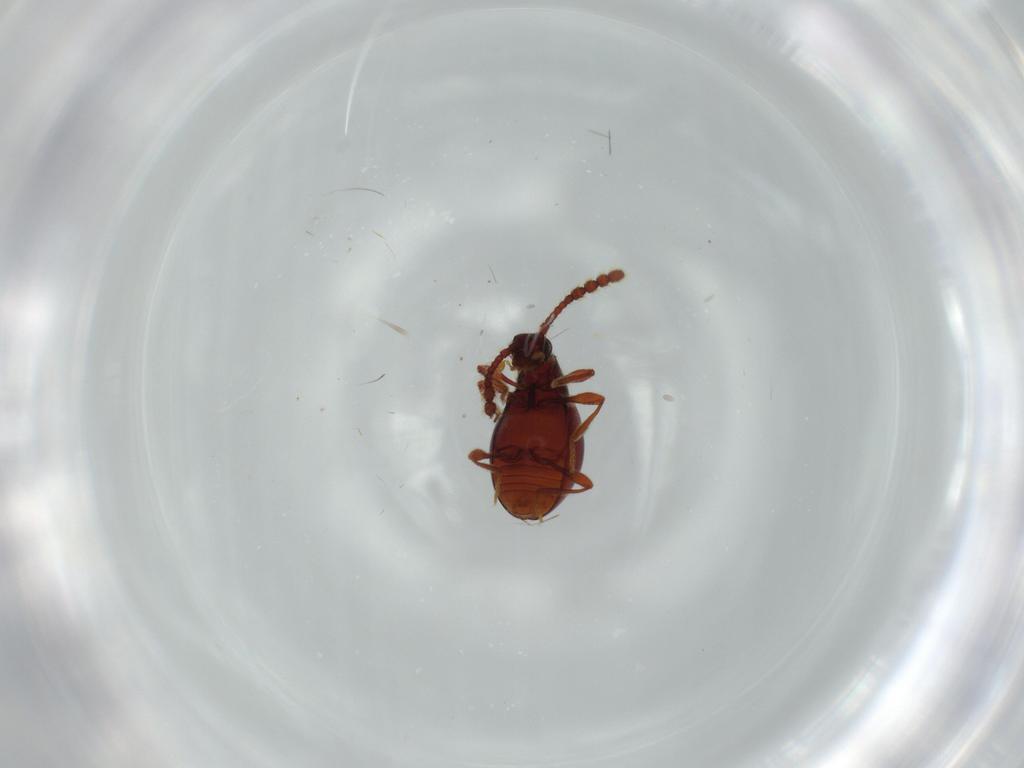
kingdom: Animalia
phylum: Arthropoda
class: Insecta
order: Coleoptera
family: Staphylinidae
